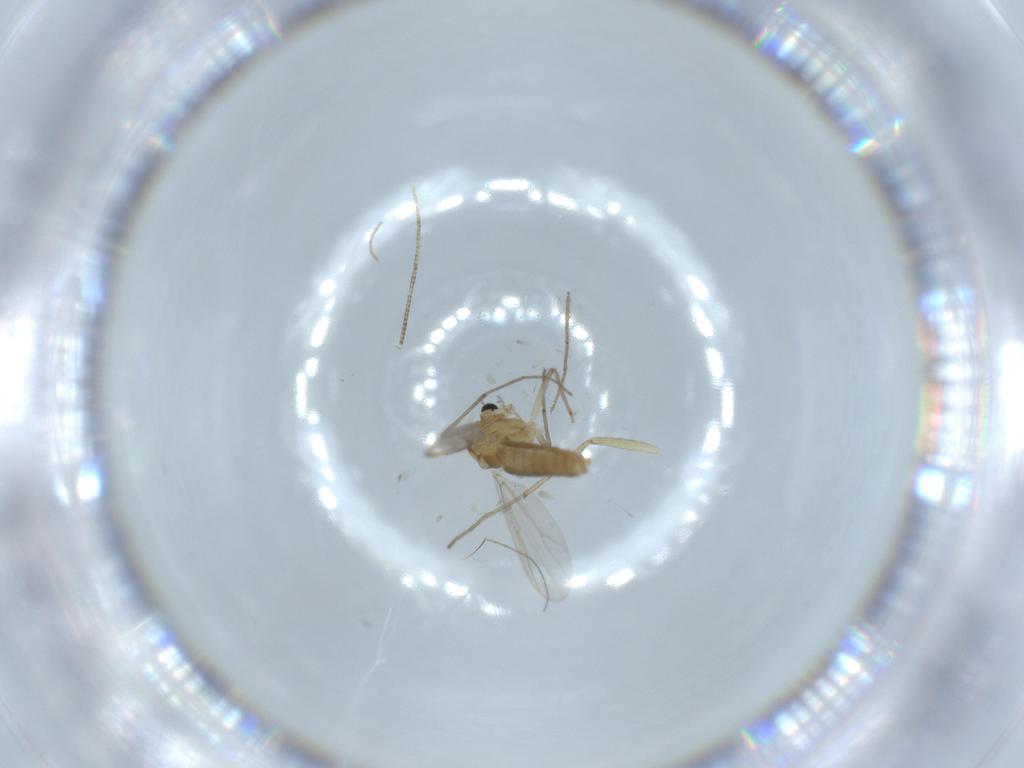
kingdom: Animalia
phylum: Arthropoda
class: Insecta
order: Diptera
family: Chironomidae
